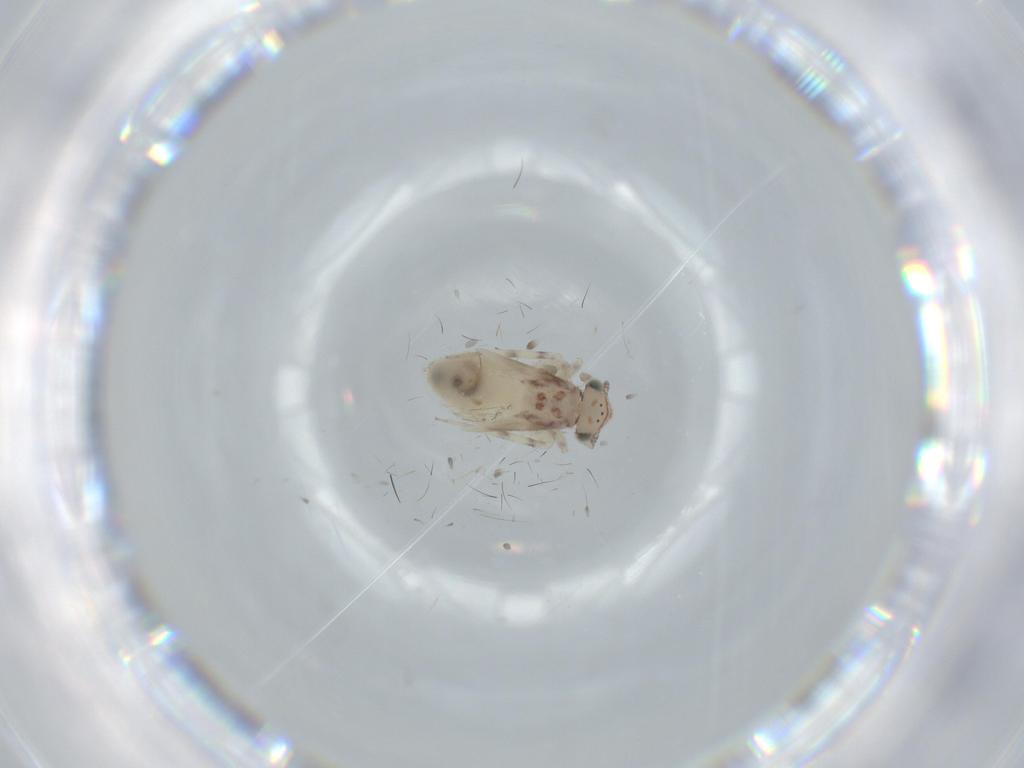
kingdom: Animalia
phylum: Arthropoda
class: Insecta
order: Psocodea
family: Liposcelididae
